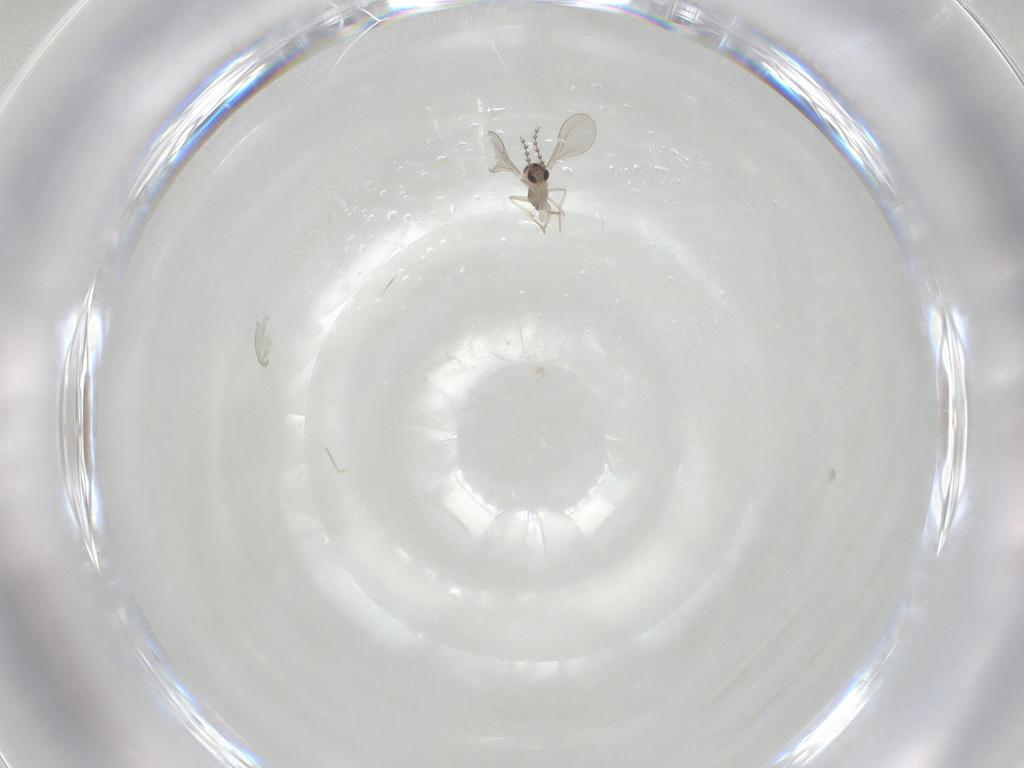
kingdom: Animalia
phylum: Arthropoda
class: Insecta
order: Diptera
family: Cecidomyiidae
